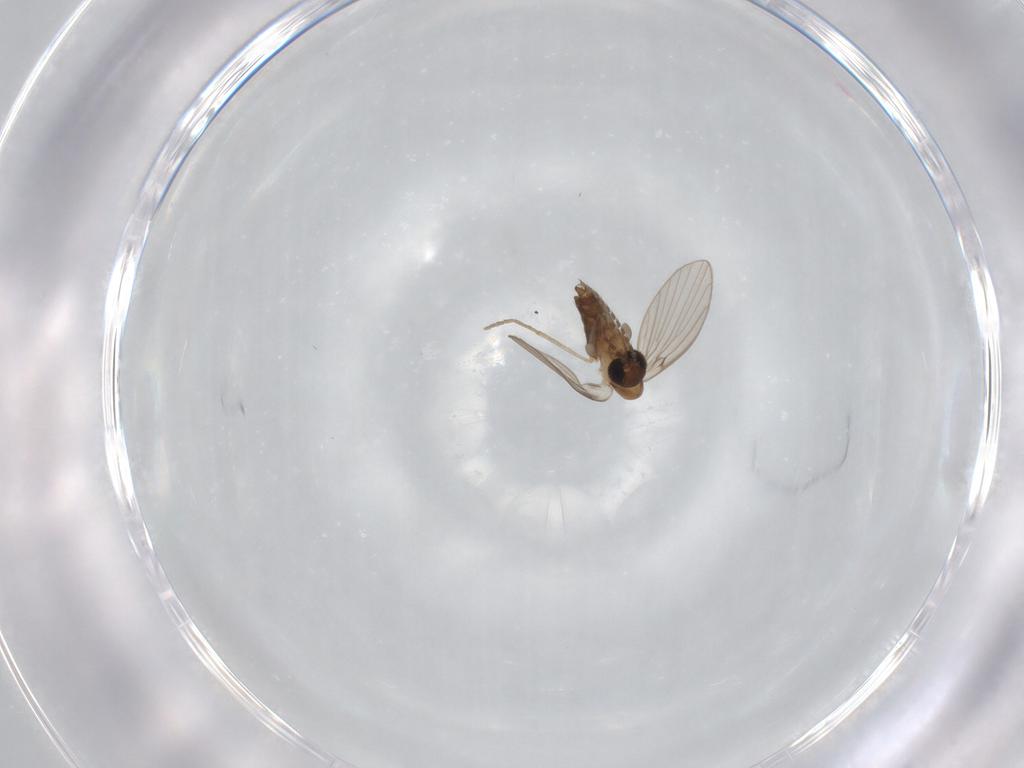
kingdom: Animalia
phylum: Arthropoda
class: Insecta
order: Diptera
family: Psychodidae
